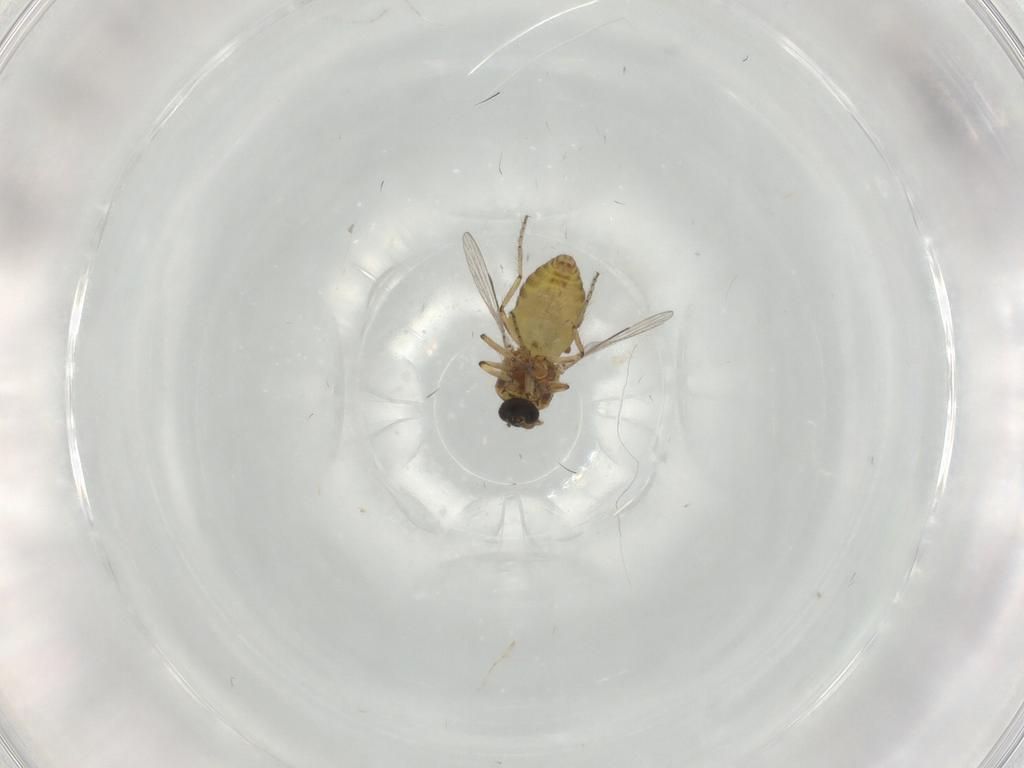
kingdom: Animalia
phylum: Arthropoda
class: Insecta
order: Diptera
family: Ceratopogonidae
